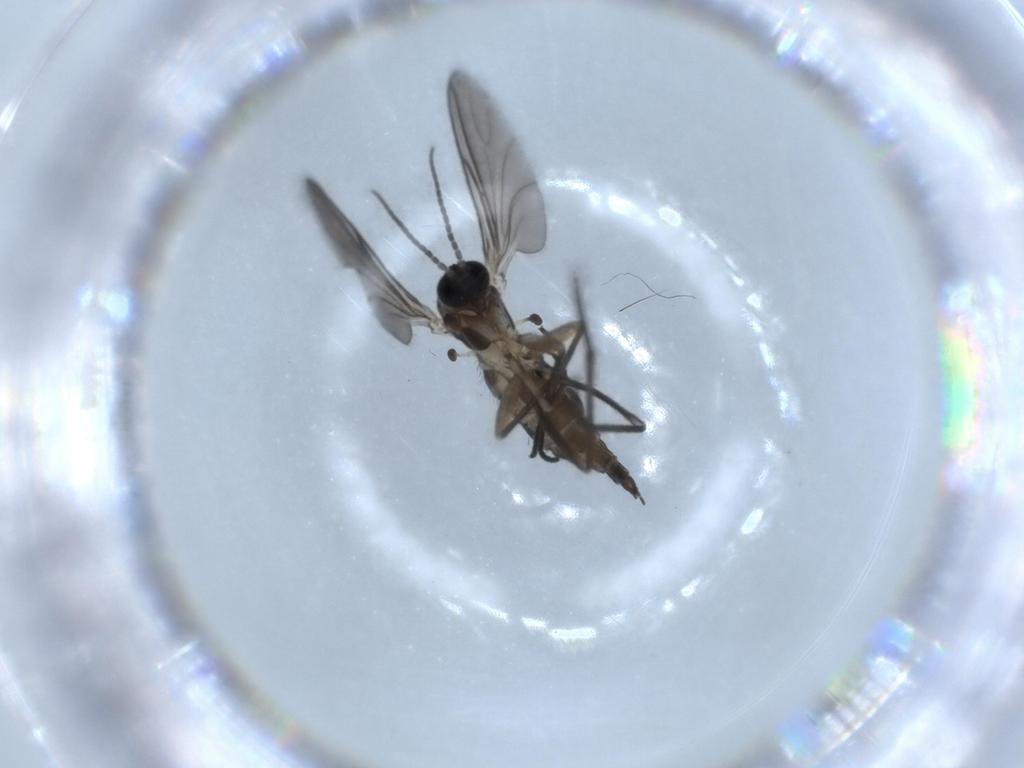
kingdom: Animalia
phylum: Arthropoda
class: Insecta
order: Diptera
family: Sciaridae
